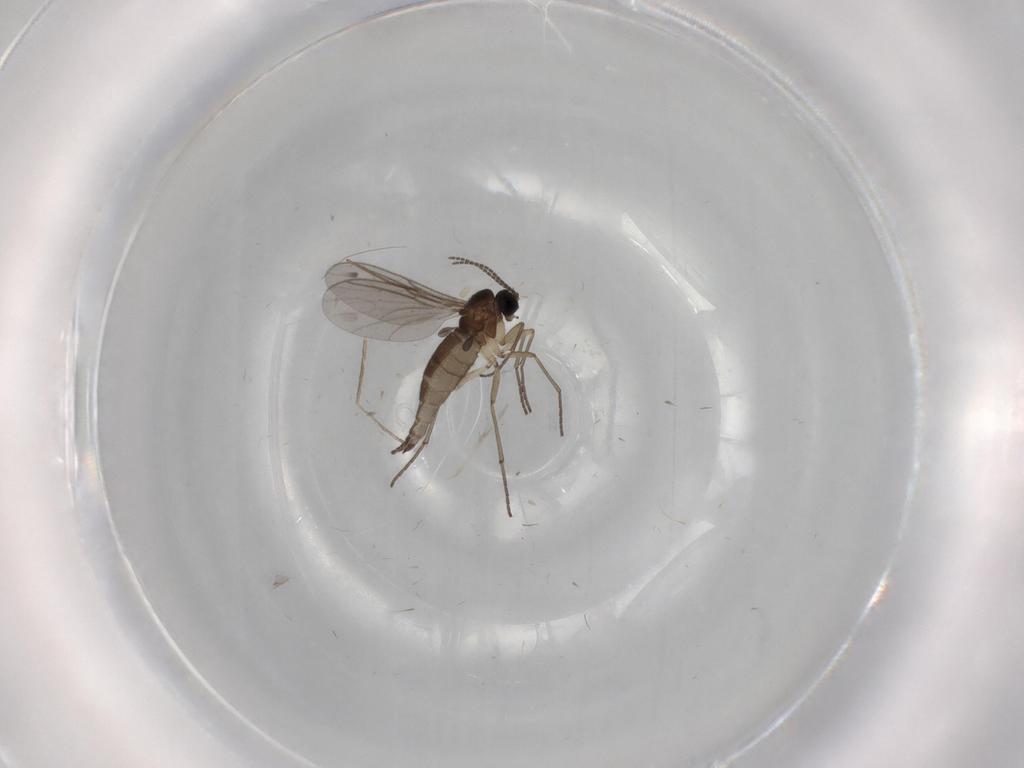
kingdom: Animalia
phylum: Arthropoda
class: Insecta
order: Diptera
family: Sciaridae
